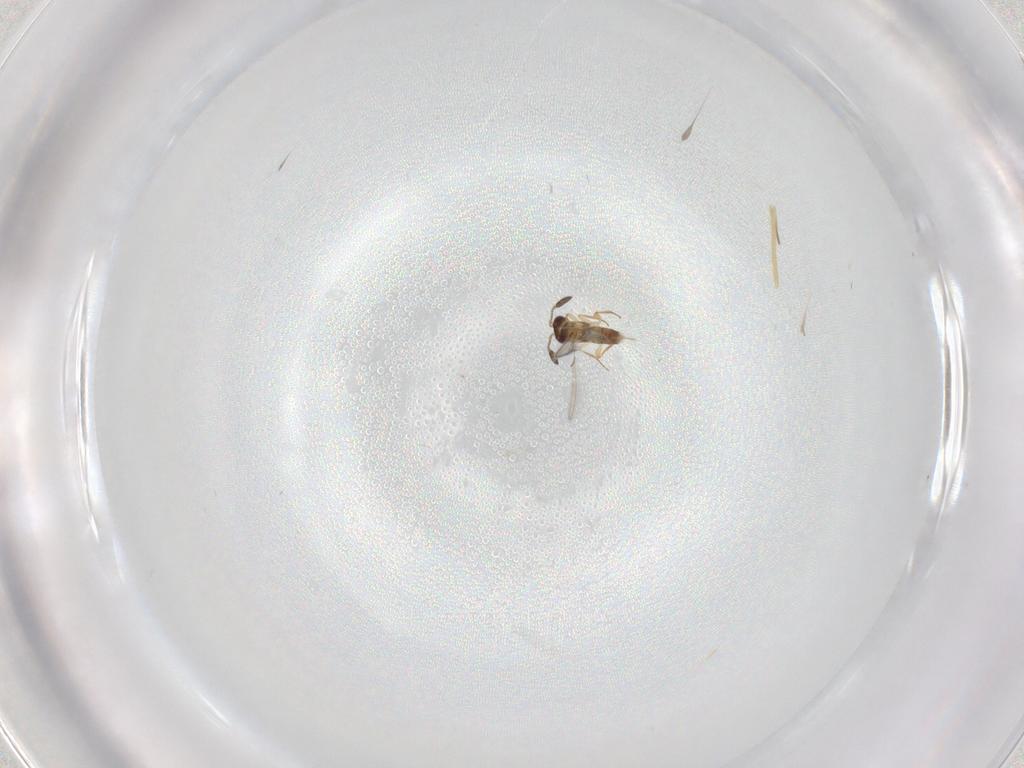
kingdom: Animalia
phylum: Arthropoda
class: Insecta
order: Diptera
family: Chironomidae
